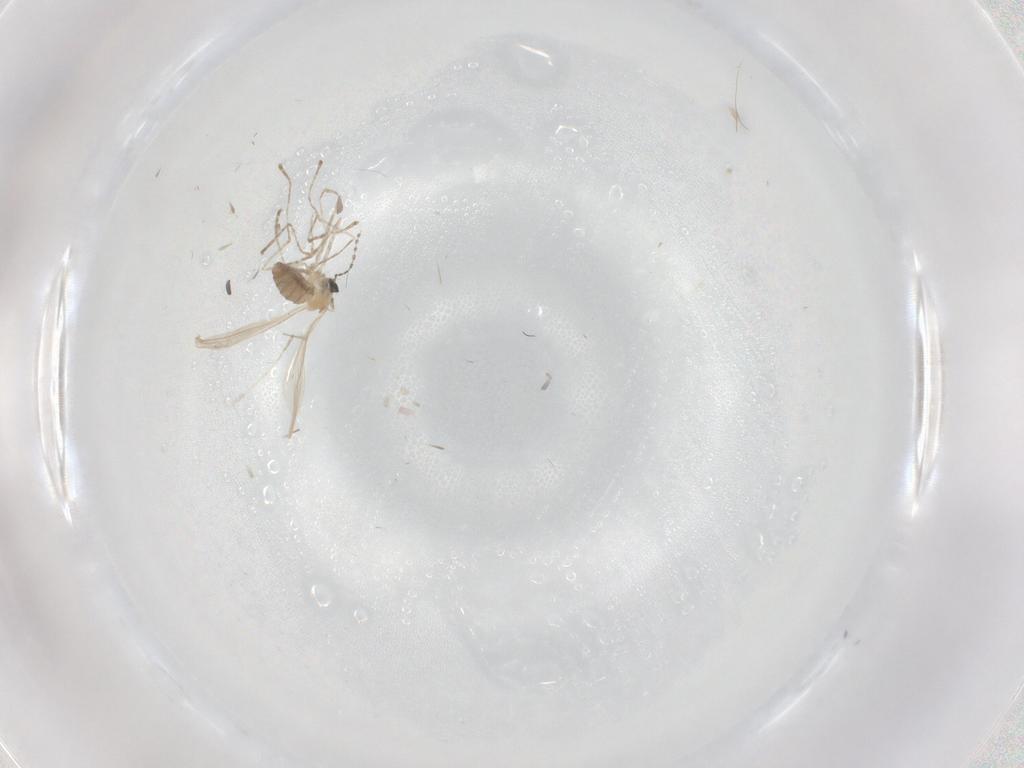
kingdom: Animalia
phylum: Arthropoda
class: Insecta
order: Diptera
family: Cecidomyiidae
